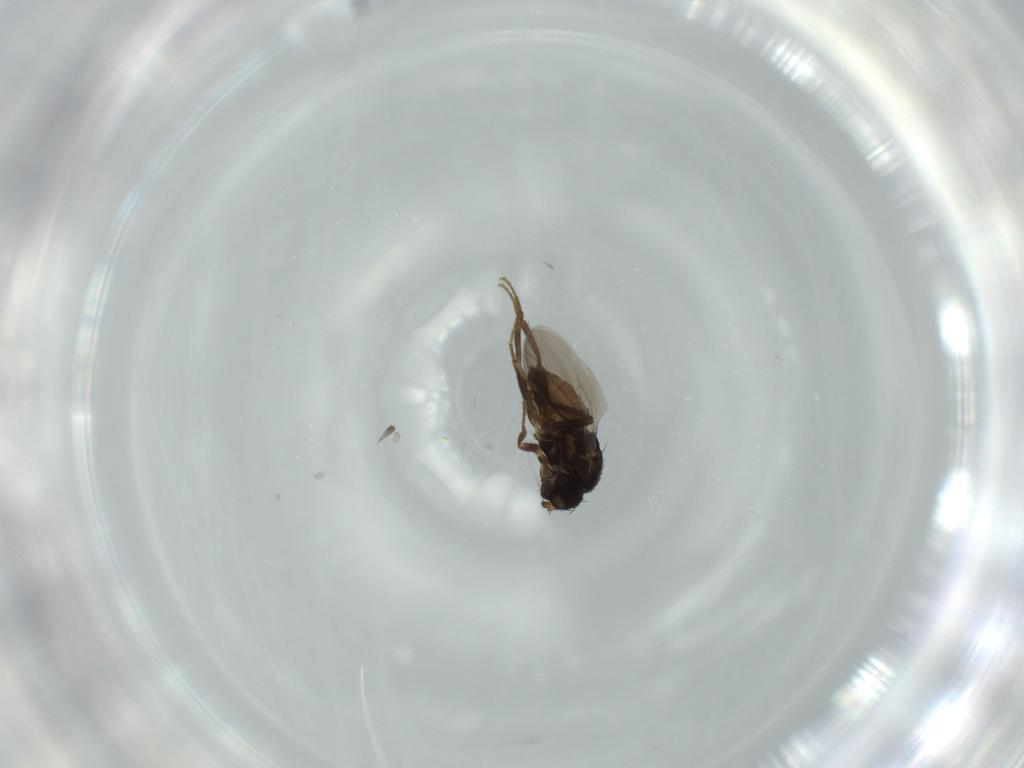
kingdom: Animalia
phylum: Arthropoda
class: Insecta
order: Diptera
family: Sphaeroceridae
